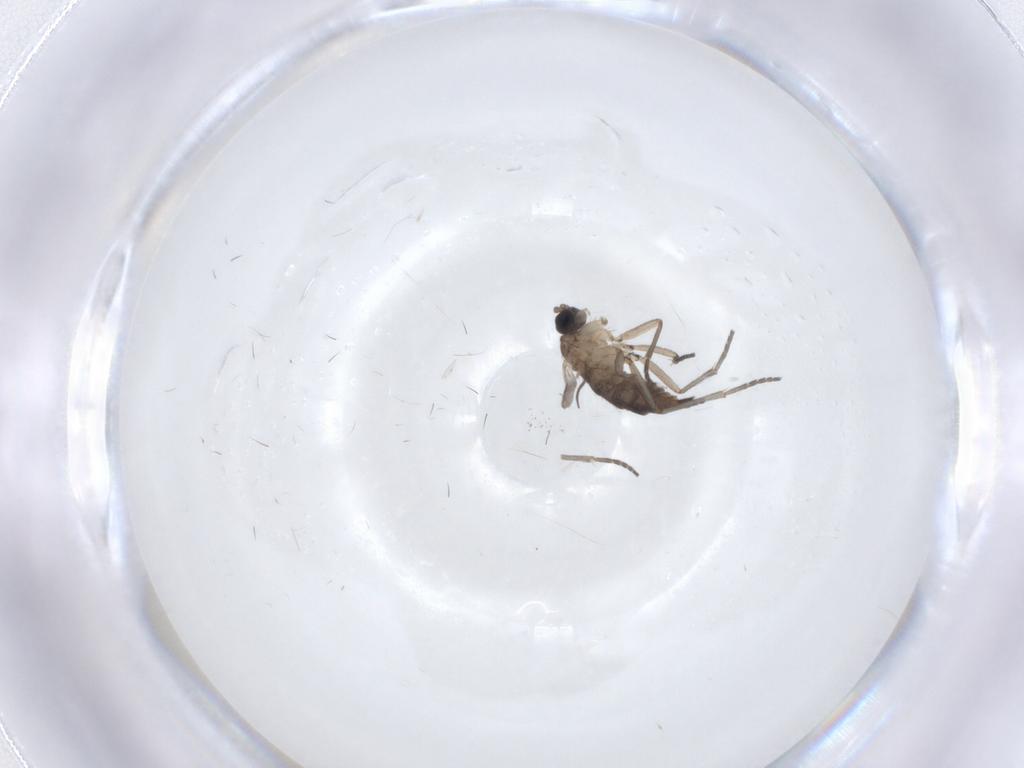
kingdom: Animalia
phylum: Arthropoda
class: Insecta
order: Diptera
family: Sciaridae
